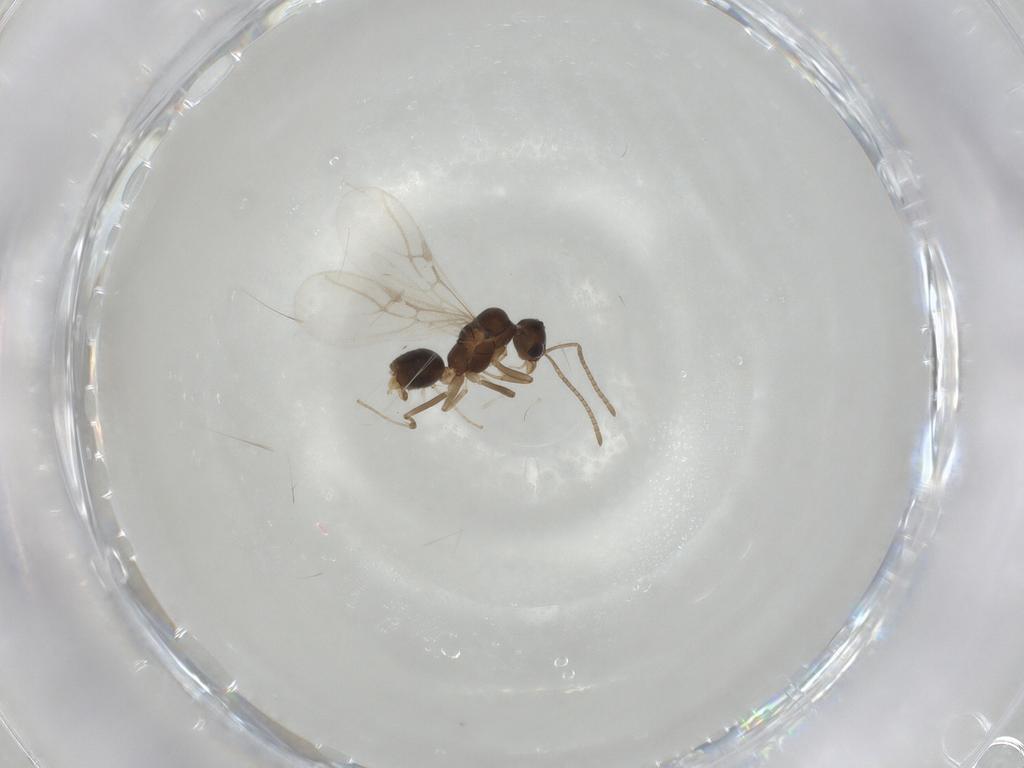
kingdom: Animalia
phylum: Arthropoda
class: Insecta
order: Hymenoptera
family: Formicidae
